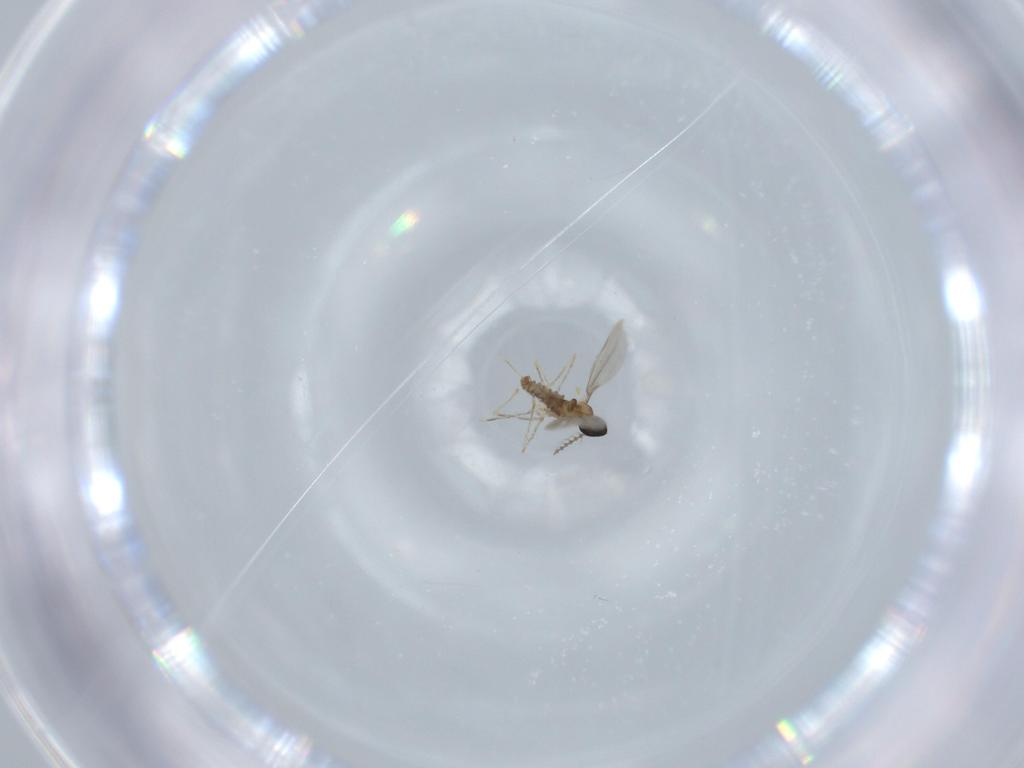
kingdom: Animalia
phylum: Arthropoda
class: Insecta
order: Diptera
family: Cecidomyiidae
